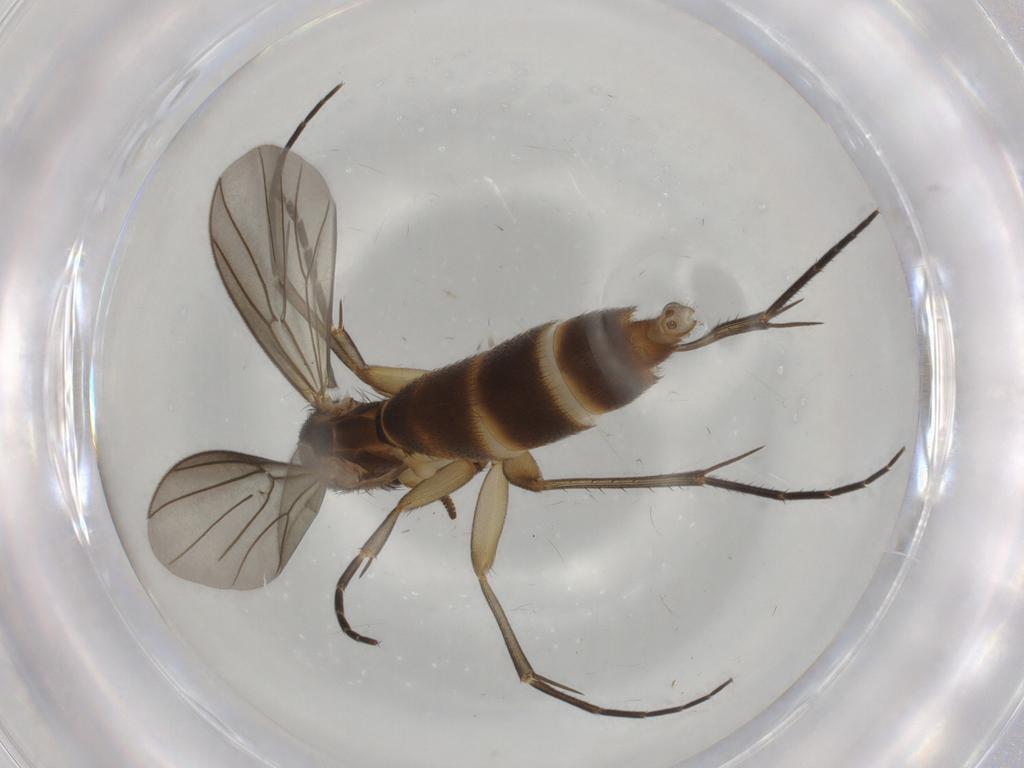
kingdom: Animalia
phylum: Arthropoda
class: Insecta
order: Diptera
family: Mycetophilidae
